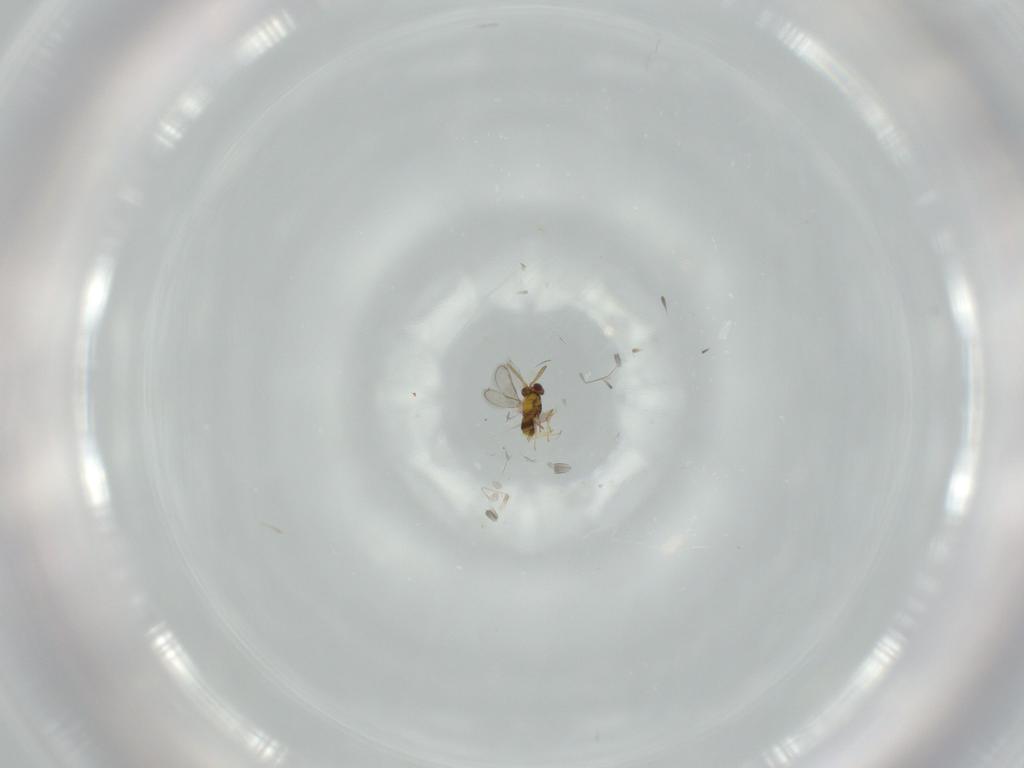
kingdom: Animalia
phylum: Arthropoda
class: Insecta
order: Hymenoptera
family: Aphelinidae
